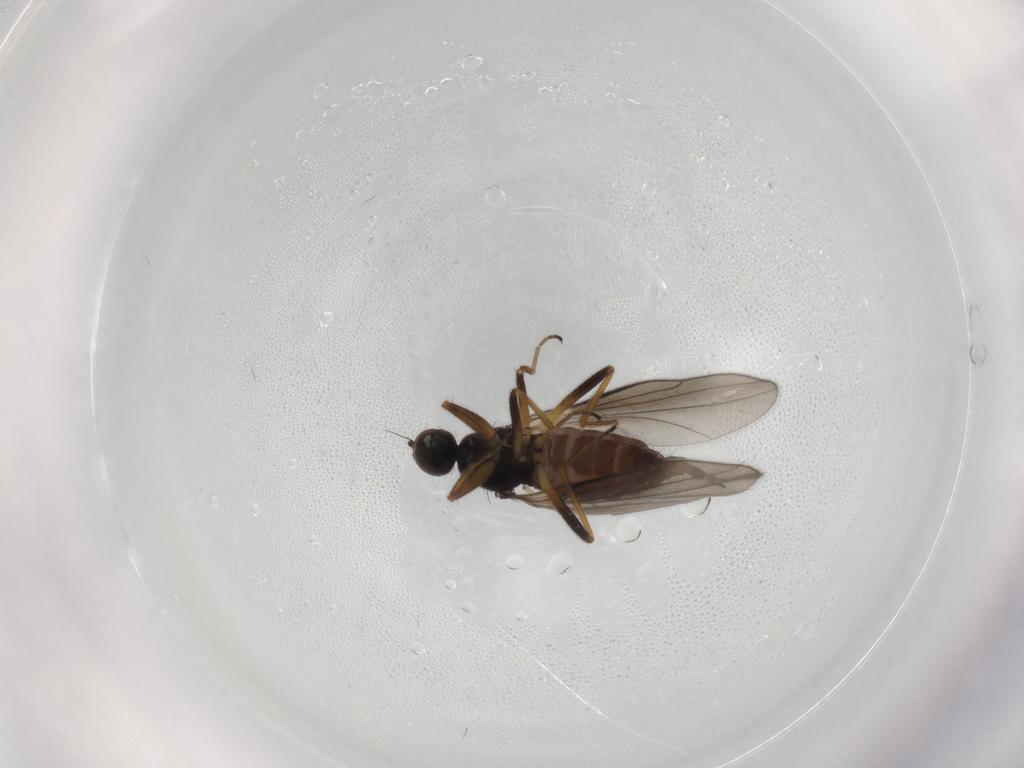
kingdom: Animalia
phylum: Arthropoda
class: Insecta
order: Diptera
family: Hybotidae
